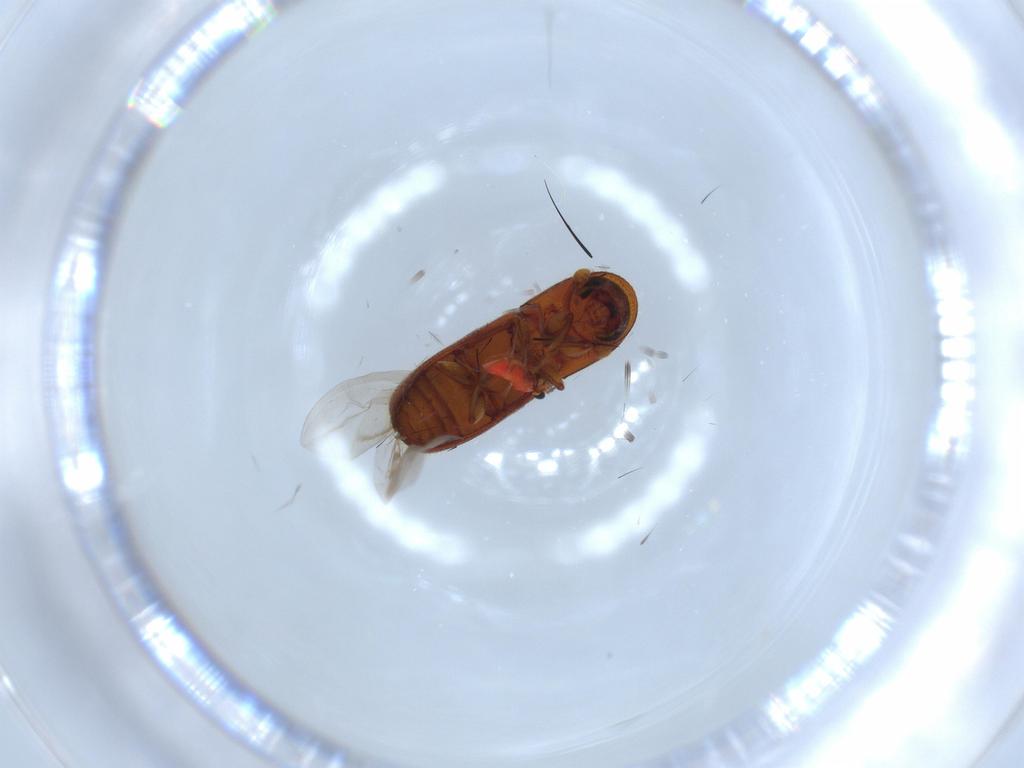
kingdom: Animalia
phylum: Arthropoda
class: Insecta
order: Coleoptera
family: Curculionidae
